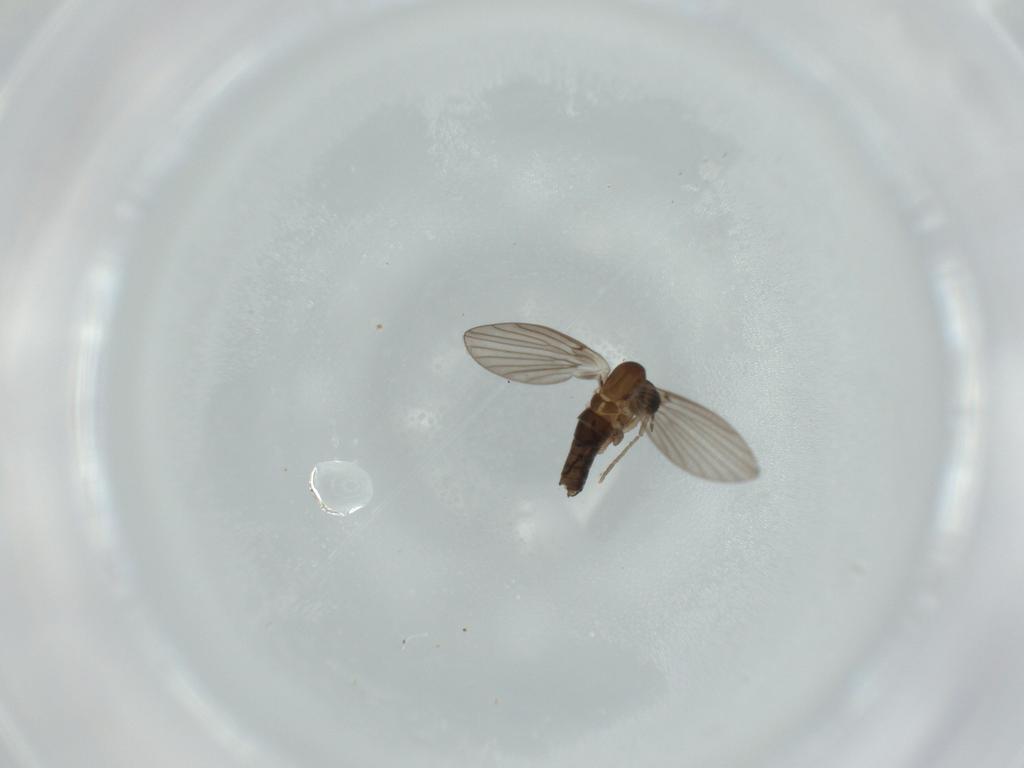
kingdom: Animalia
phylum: Arthropoda
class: Insecta
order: Diptera
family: Psychodidae
